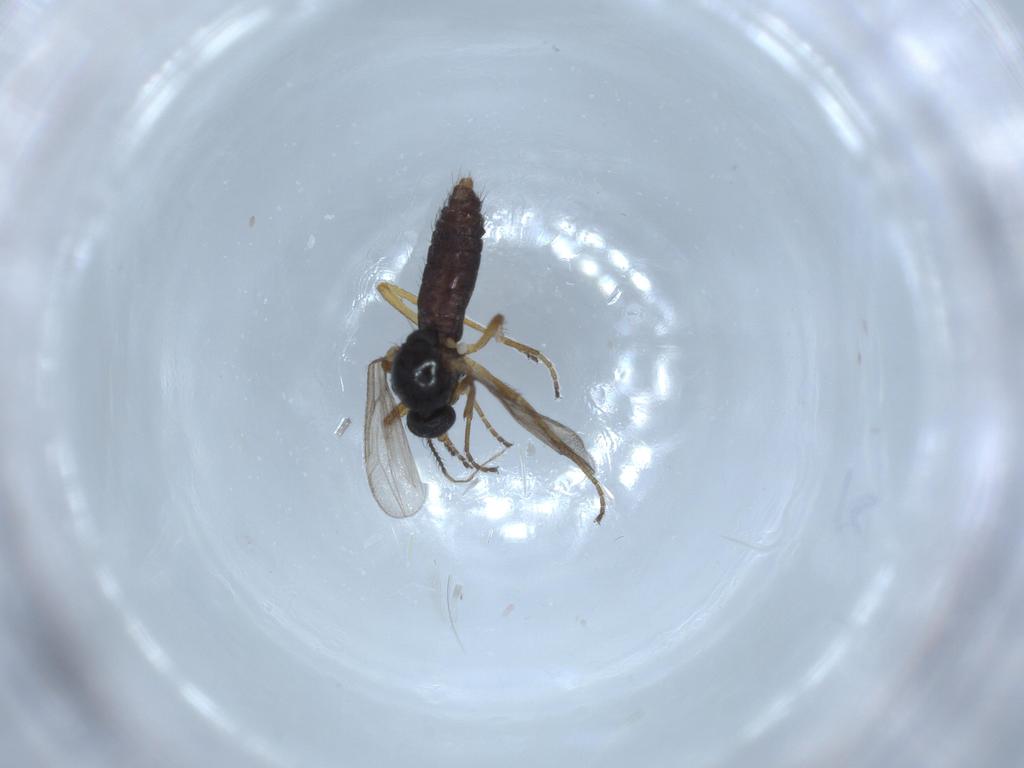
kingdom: Animalia
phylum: Arthropoda
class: Insecta
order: Diptera
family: Ceratopogonidae
